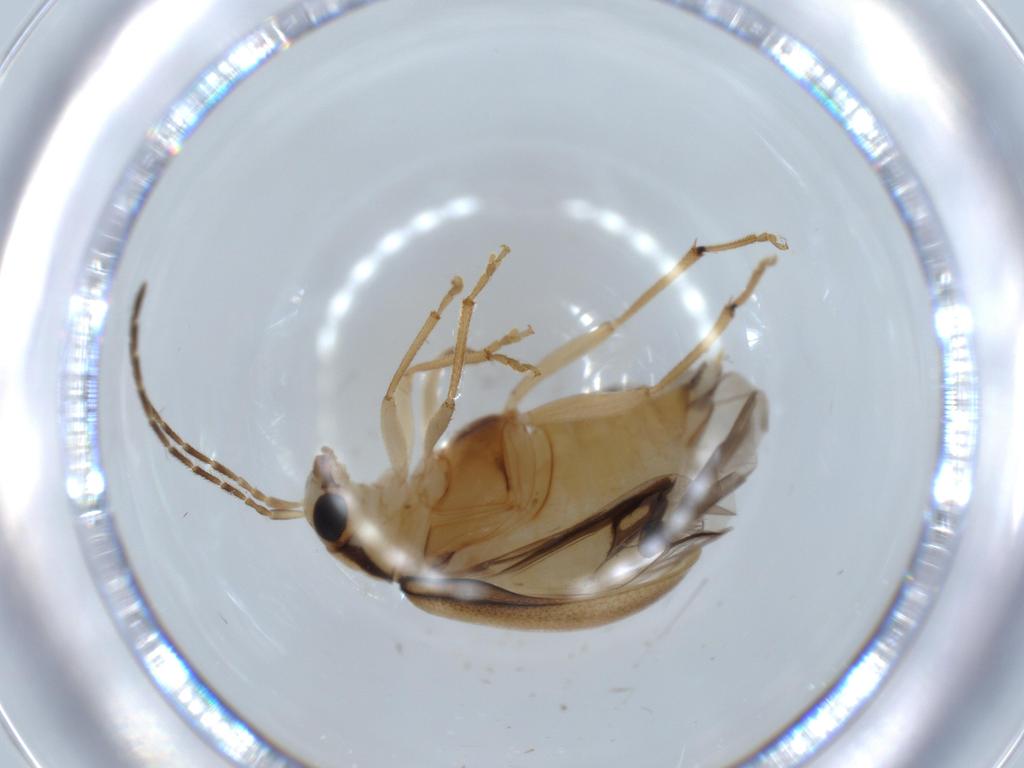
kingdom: Animalia
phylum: Arthropoda
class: Insecta
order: Coleoptera
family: Chrysomelidae
